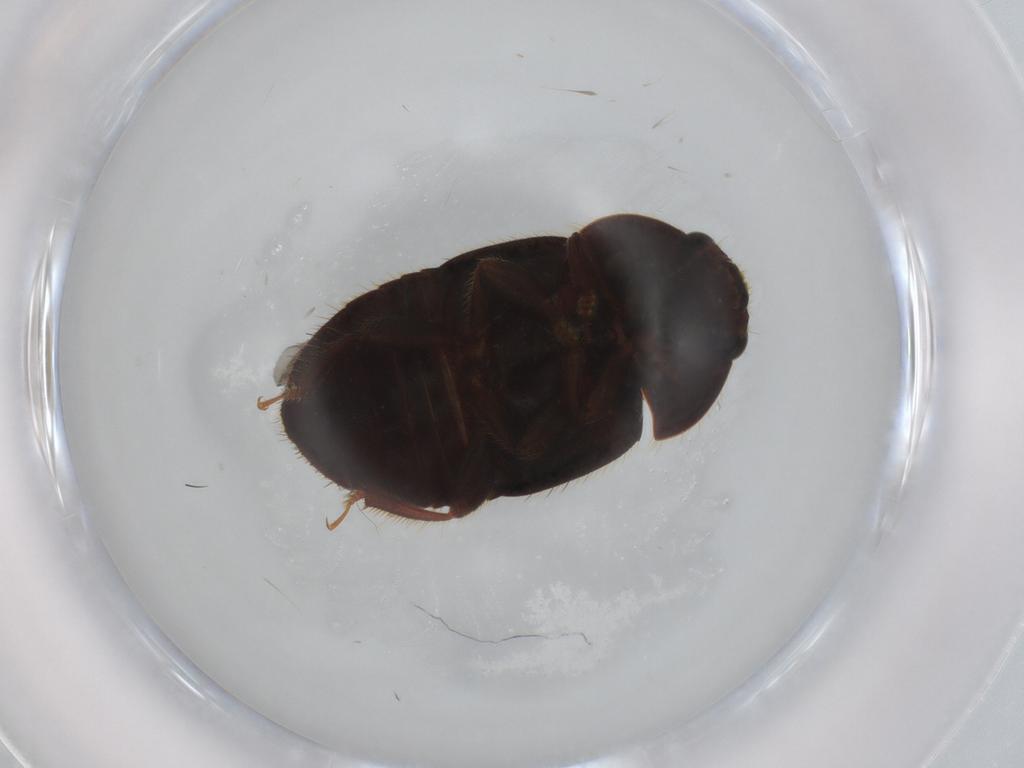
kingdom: Animalia
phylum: Arthropoda
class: Insecta
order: Coleoptera
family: Nitidulidae
